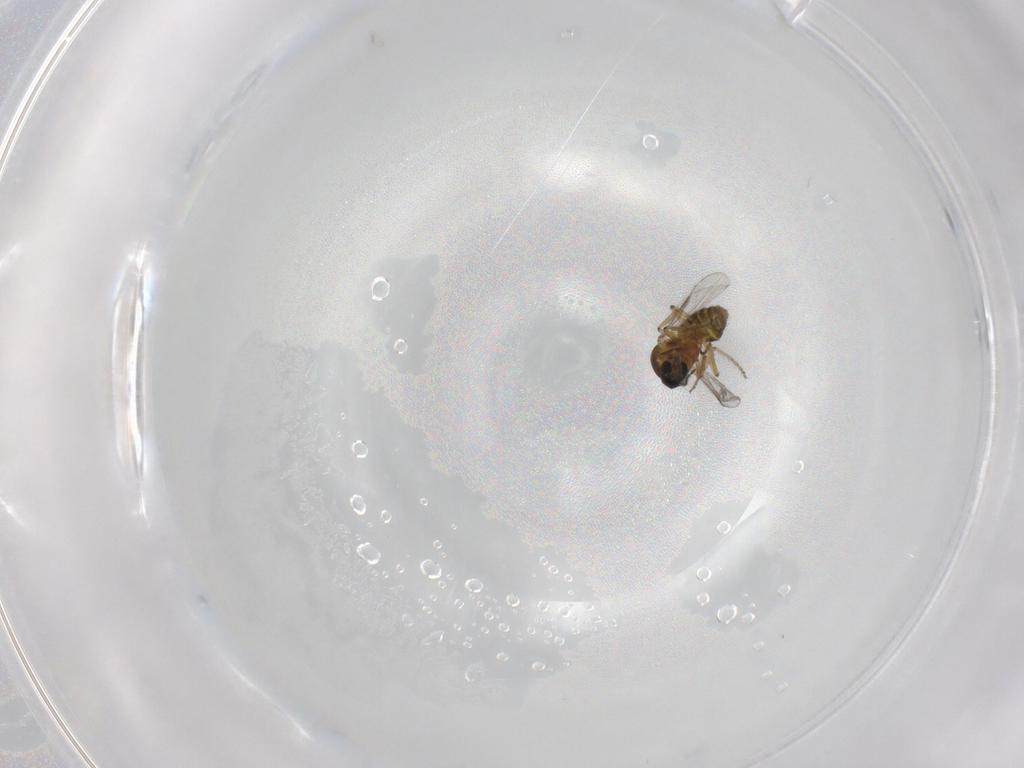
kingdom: Animalia
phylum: Arthropoda
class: Insecta
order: Diptera
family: Ceratopogonidae
